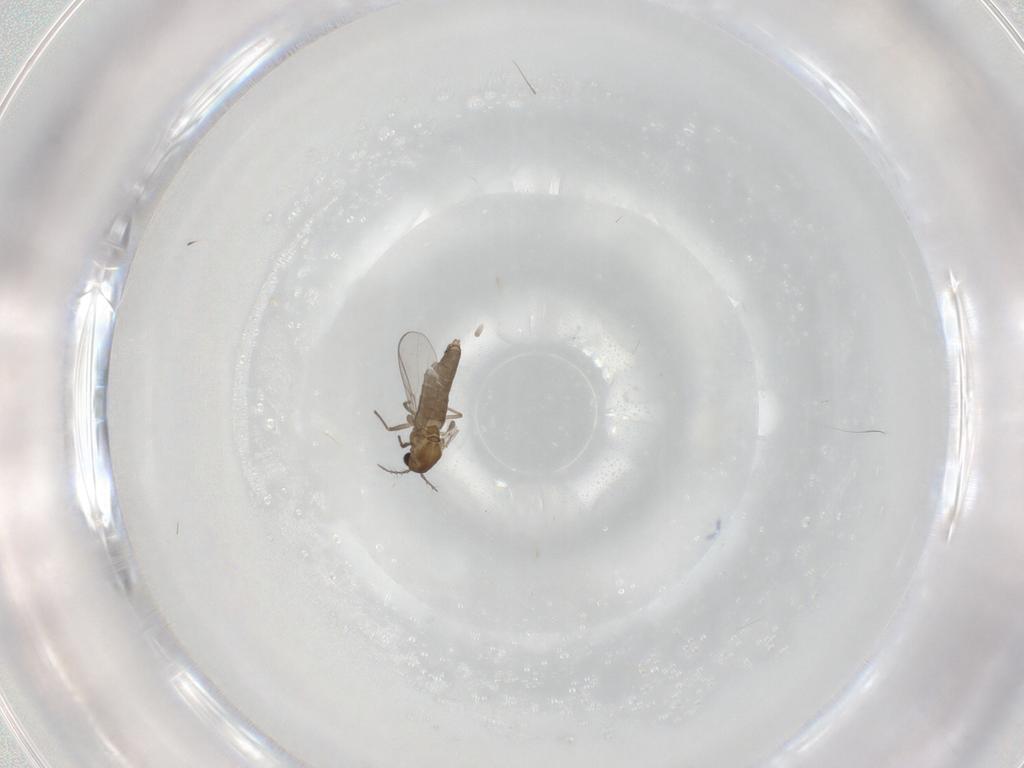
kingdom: Animalia
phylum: Arthropoda
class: Insecta
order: Diptera
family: Cecidomyiidae
